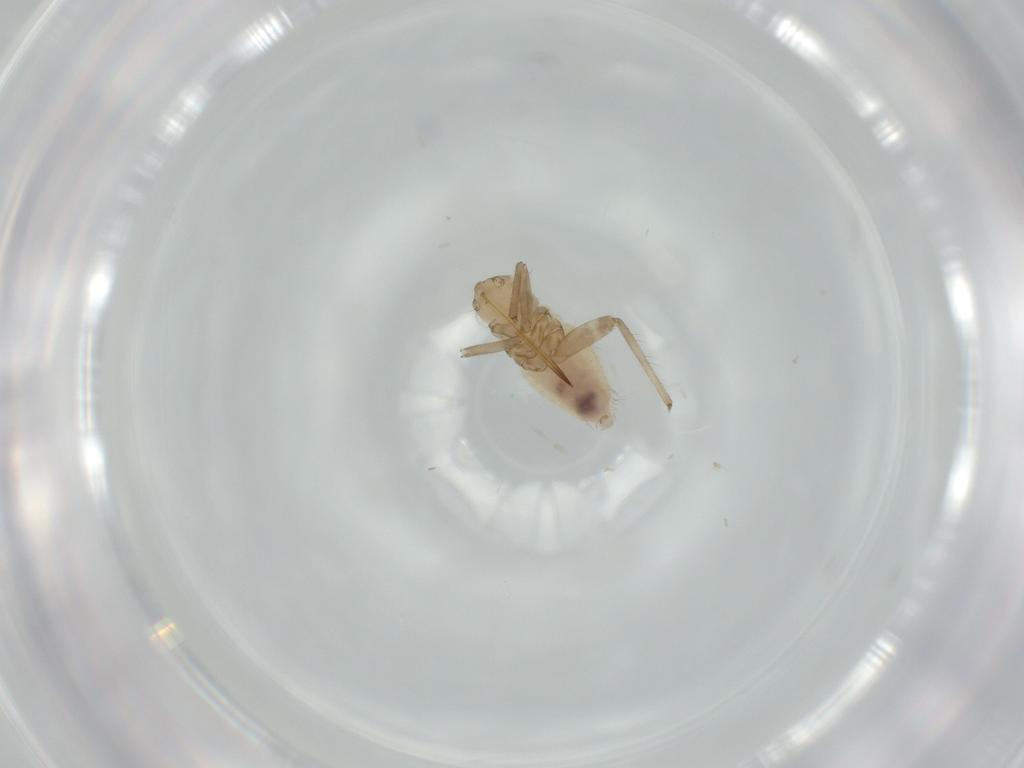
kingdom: Animalia
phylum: Arthropoda
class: Insecta
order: Hemiptera
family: Miridae
